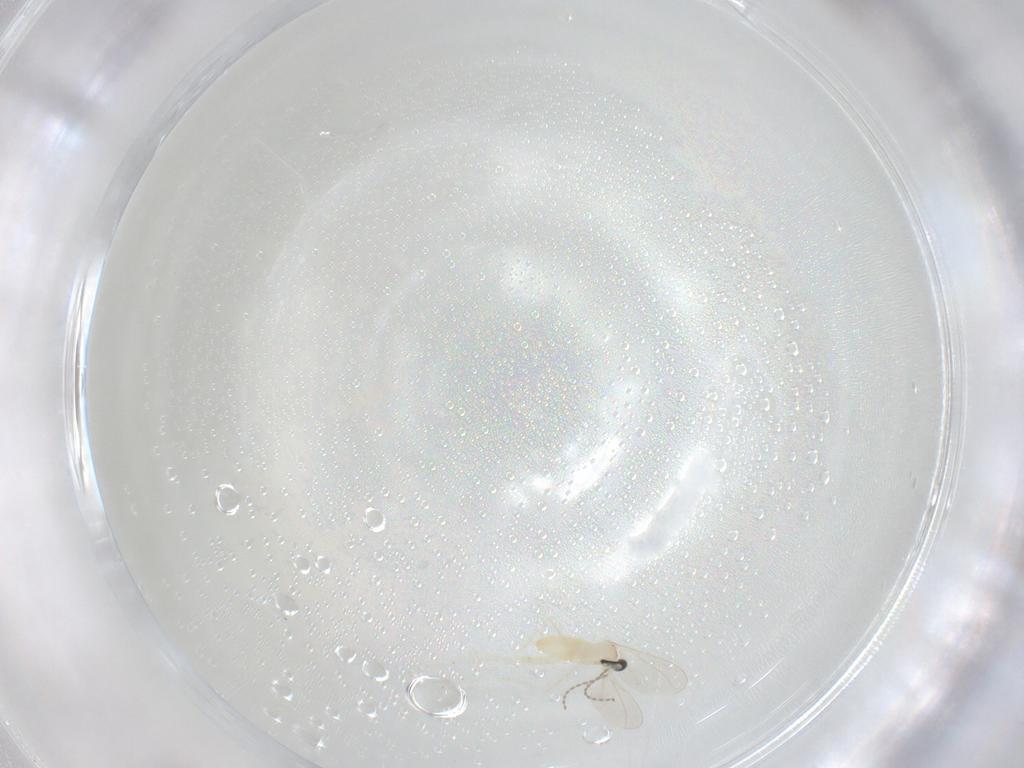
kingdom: Animalia
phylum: Arthropoda
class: Insecta
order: Diptera
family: Cecidomyiidae
